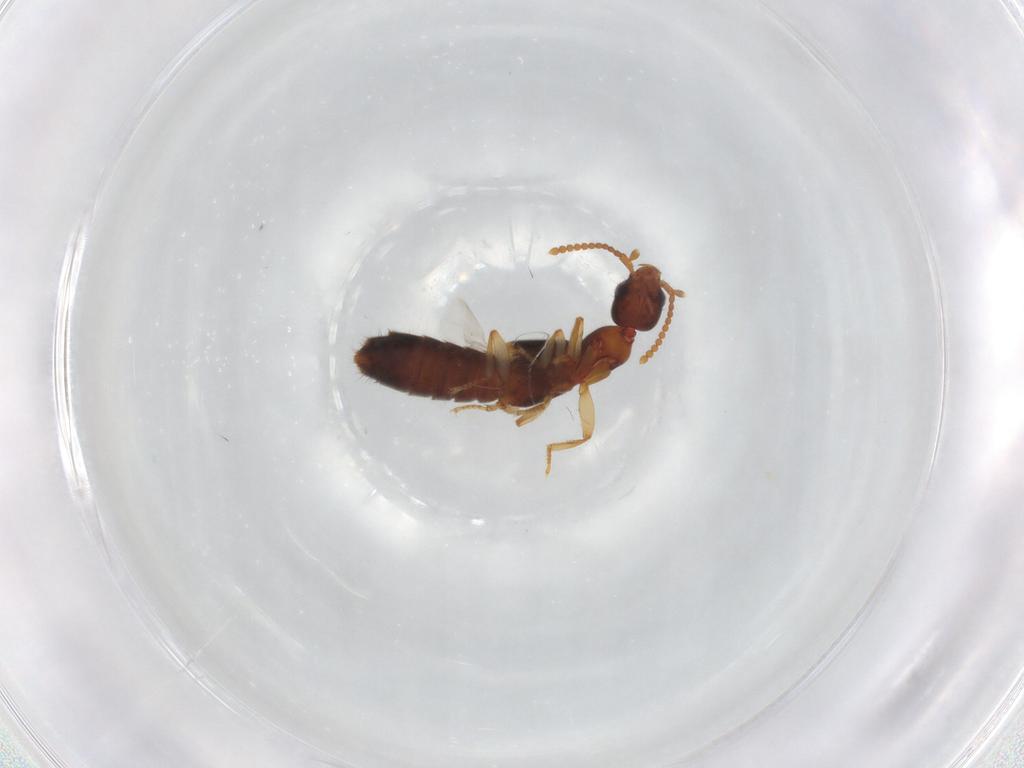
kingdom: Animalia
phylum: Arthropoda
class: Insecta
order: Coleoptera
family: Staphylinidae
